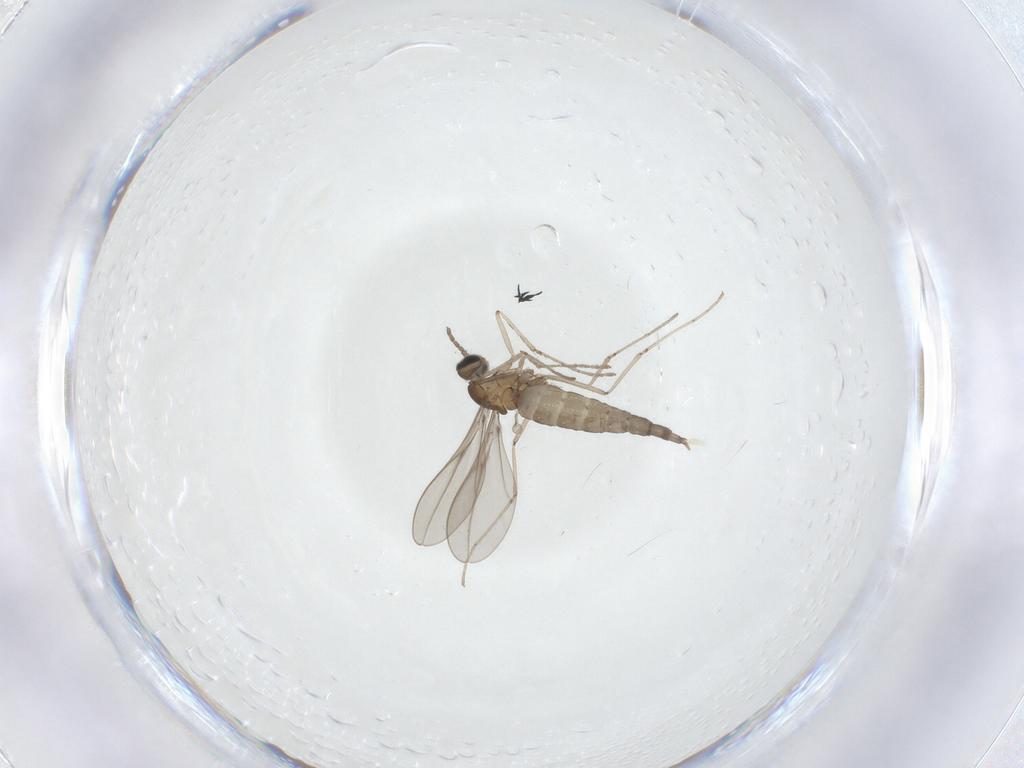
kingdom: Animalia
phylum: Arthropoda
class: Insecta
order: Diptera
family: Cecidomyiidae
